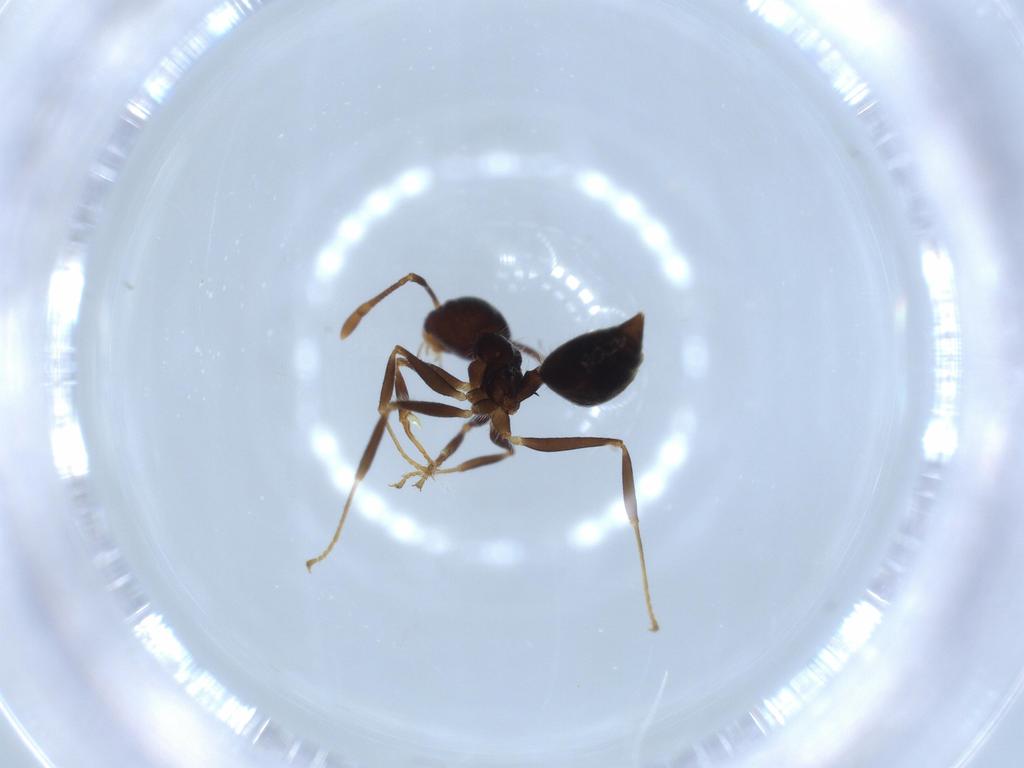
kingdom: Animalia
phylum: Arthropoda
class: Insecta
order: Hymenoptera
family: Formicidae
